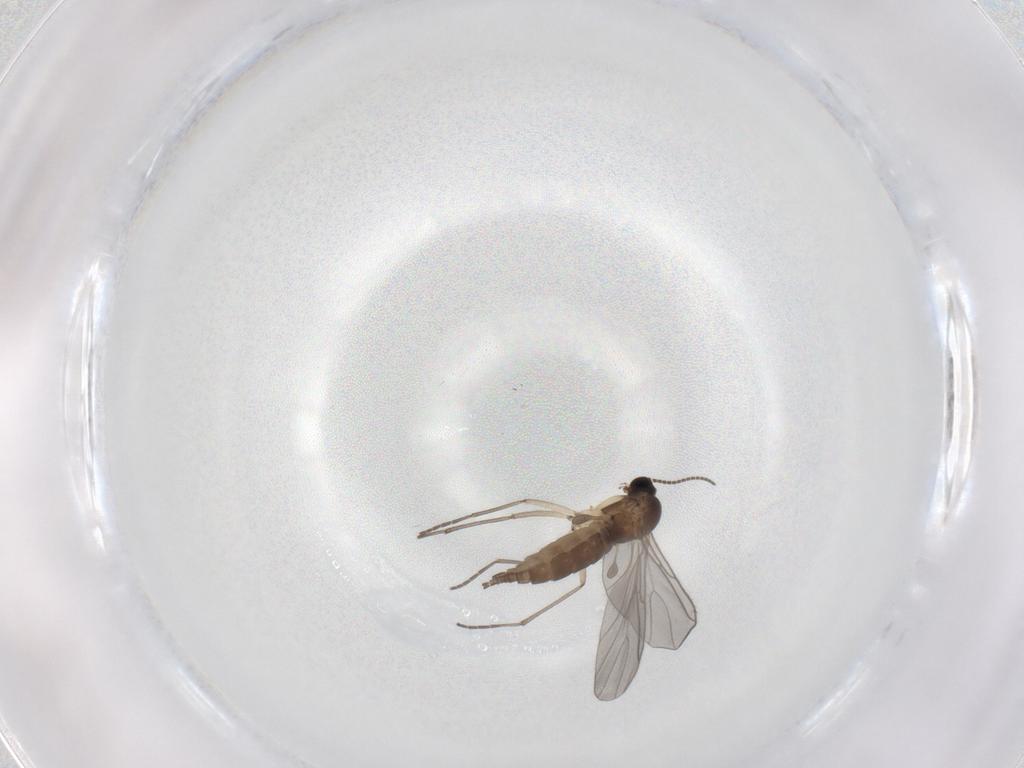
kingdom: Animalia
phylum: Arthropoda
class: Insecta
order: Diptera
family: Sciaridae
